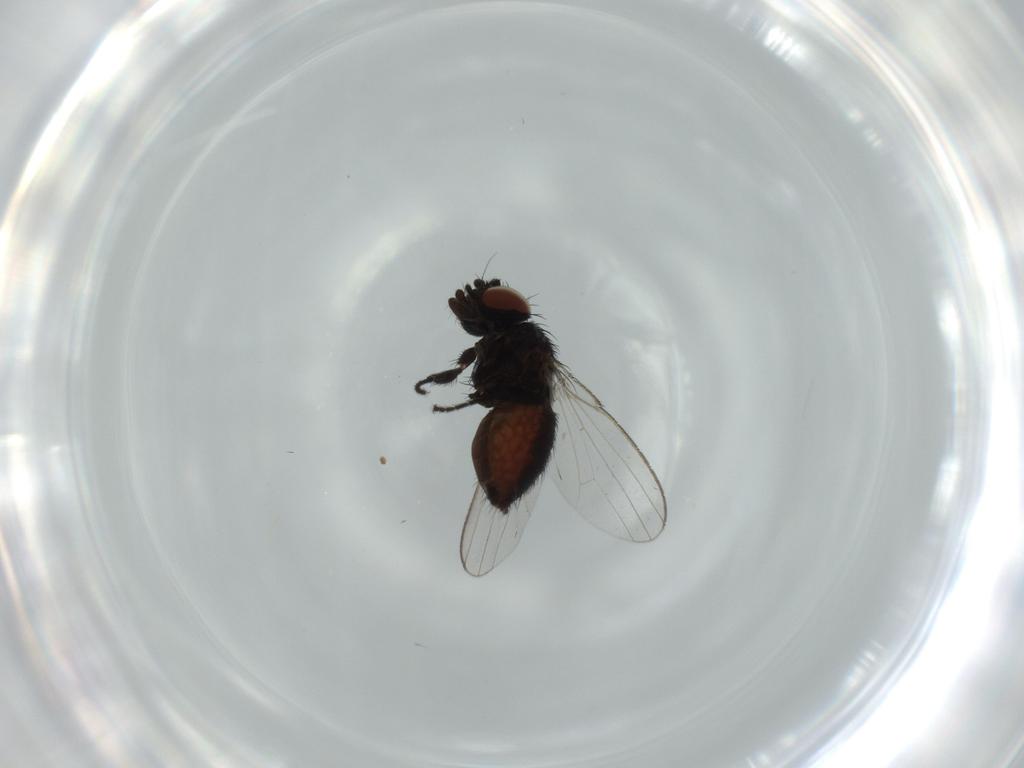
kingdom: Animalia
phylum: Arthropoda
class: Insecta
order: Diptera
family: Milichiidae
